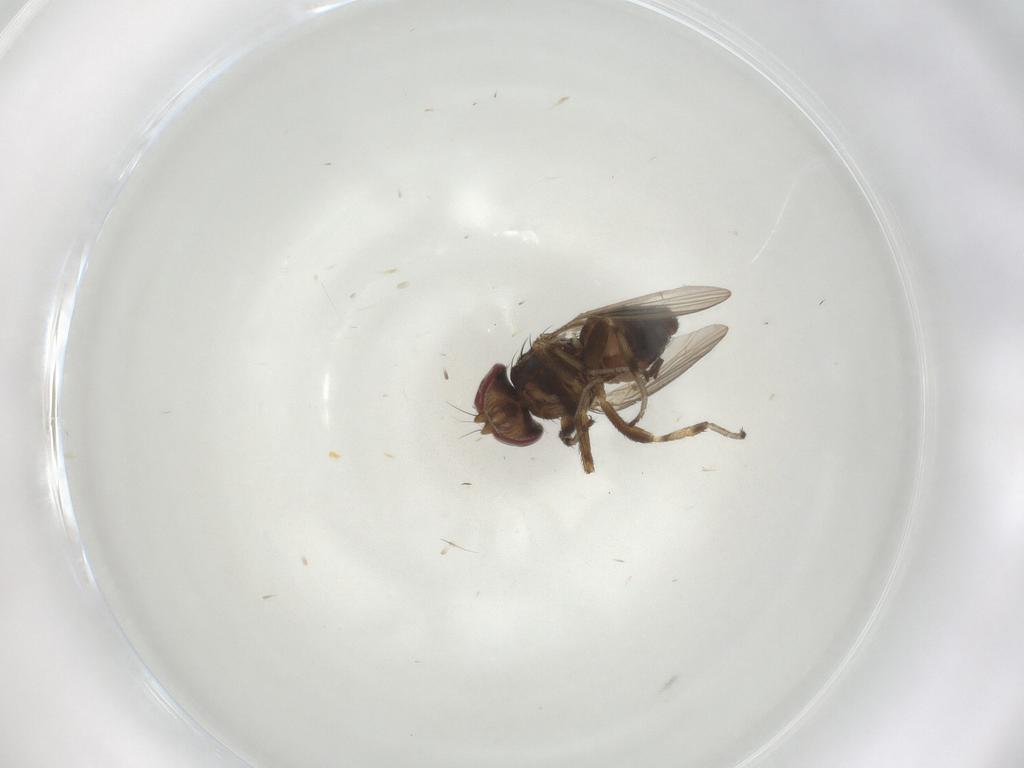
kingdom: Animalia
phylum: Arthropoda
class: Insecta
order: Diptera
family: Heleomyzidae
